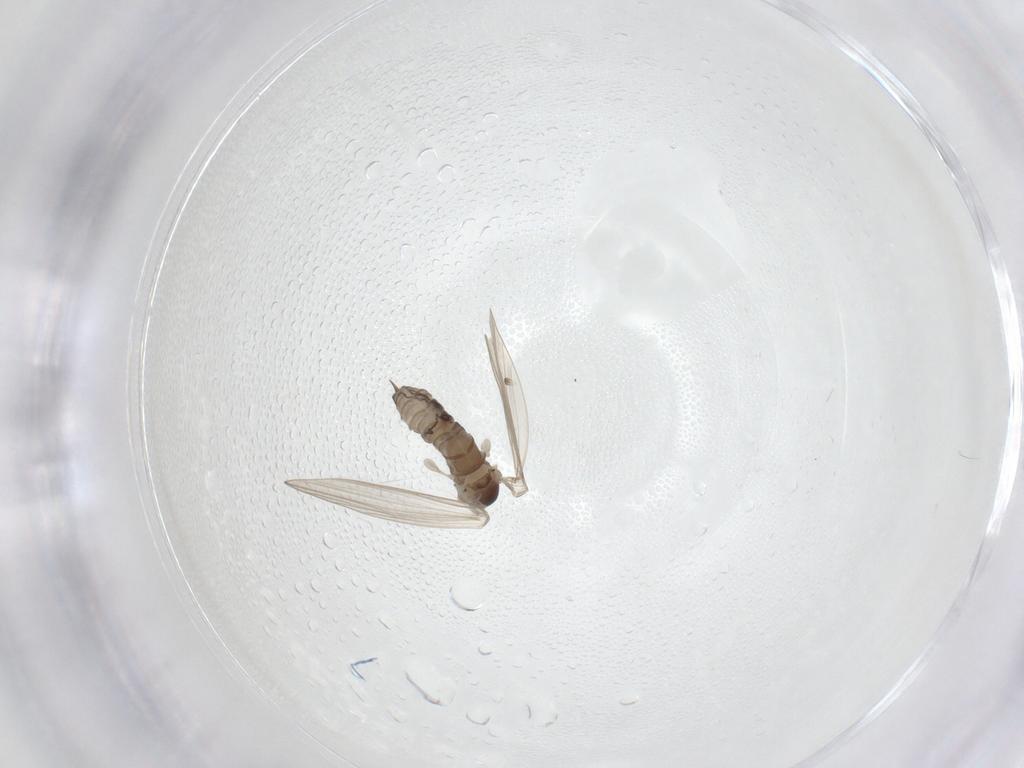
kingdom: Animalia
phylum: Arthropoda
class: Insecta
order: Diptera
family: Psychodidae
